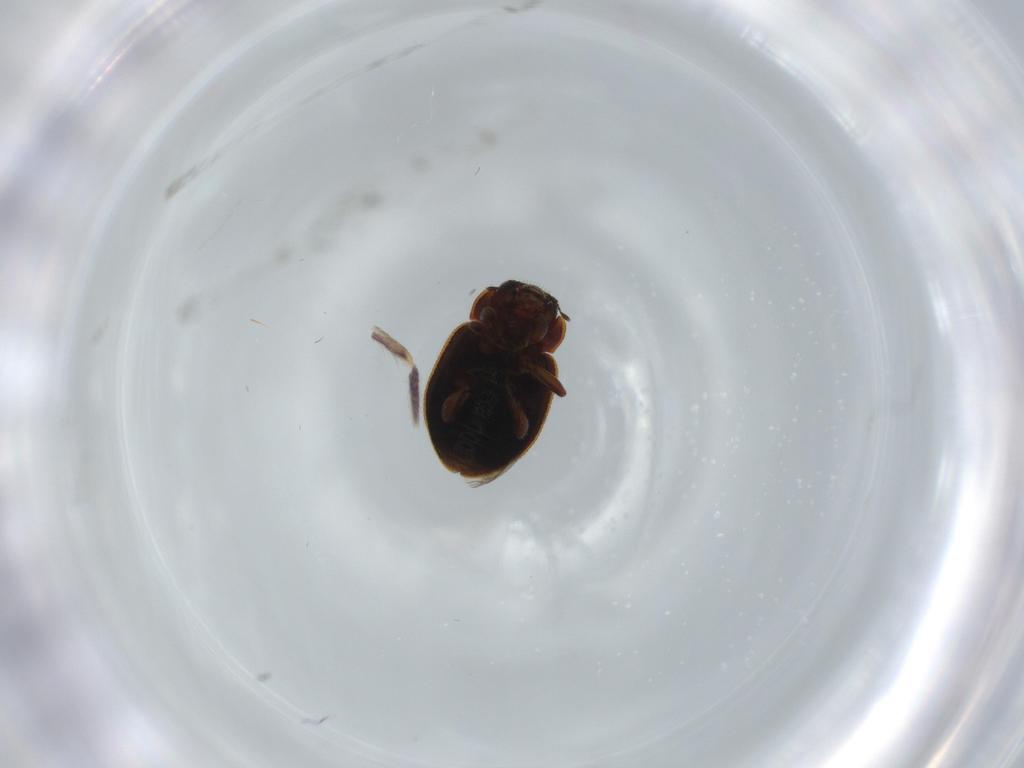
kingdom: Animalia
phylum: Arthropoda
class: Insecta
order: Coleoptera
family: Coccinellidae
